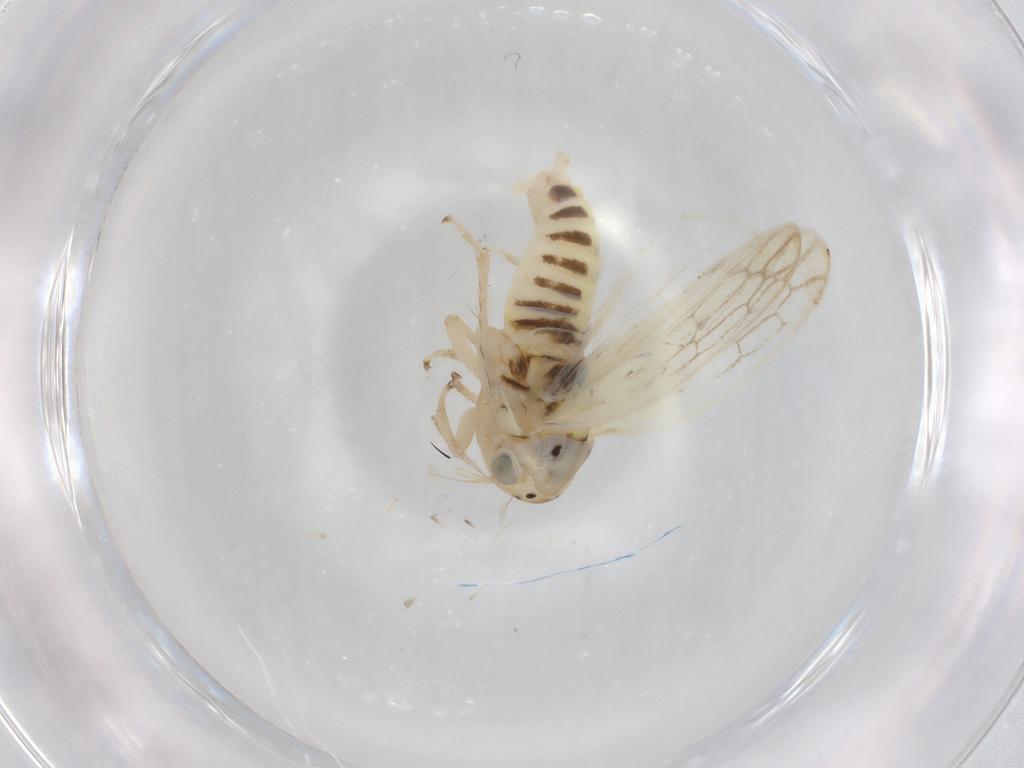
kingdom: Animalia
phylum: Arthropoda
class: Insecta
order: Hemiptera
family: Cicadellidae
